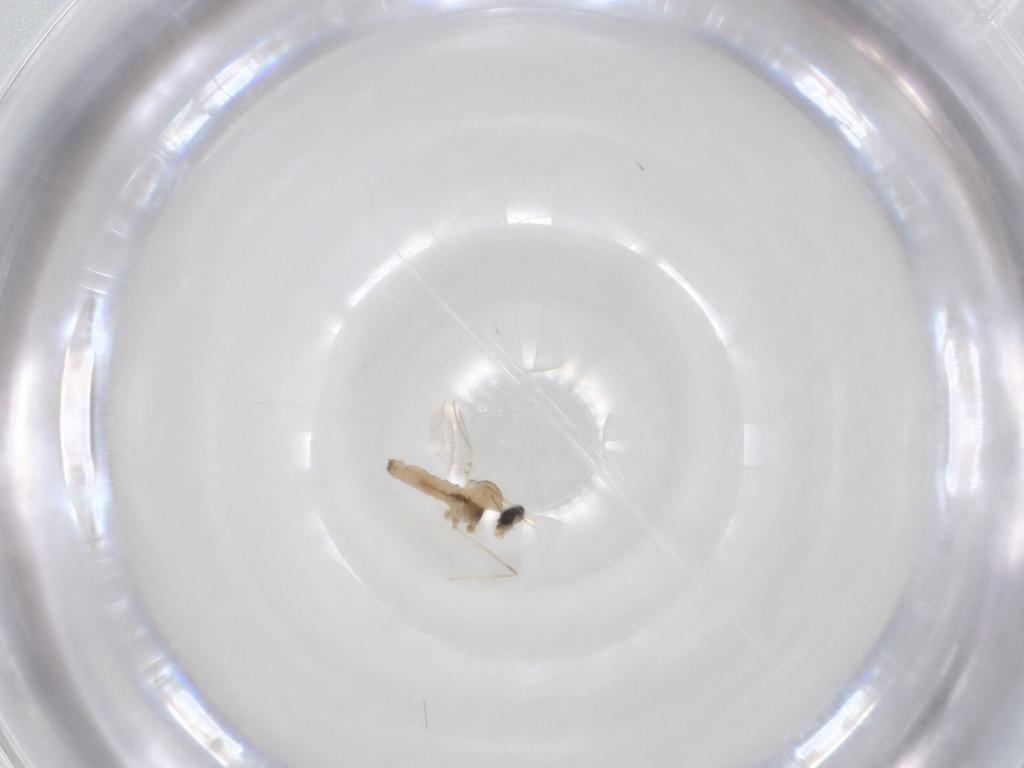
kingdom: Animalia
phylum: Arthropoda
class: Insecta
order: Diptera
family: Cecidomyiidae
